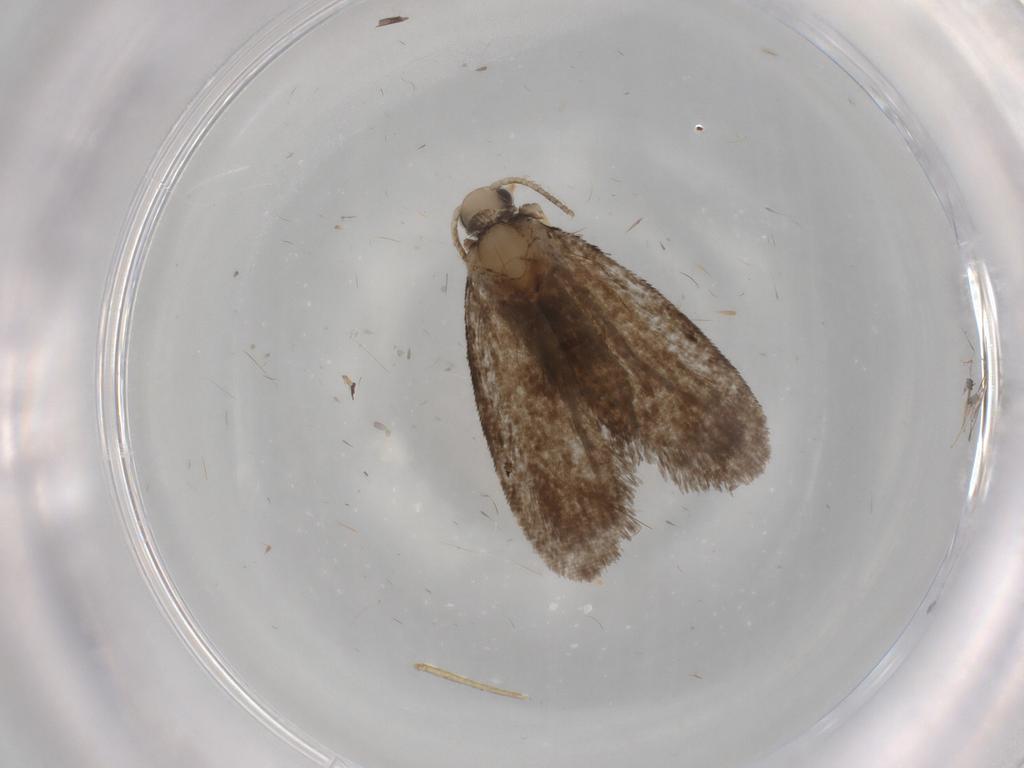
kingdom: Animalia
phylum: Arthropoda
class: Insecta
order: Lepidoptera
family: Psychidae
